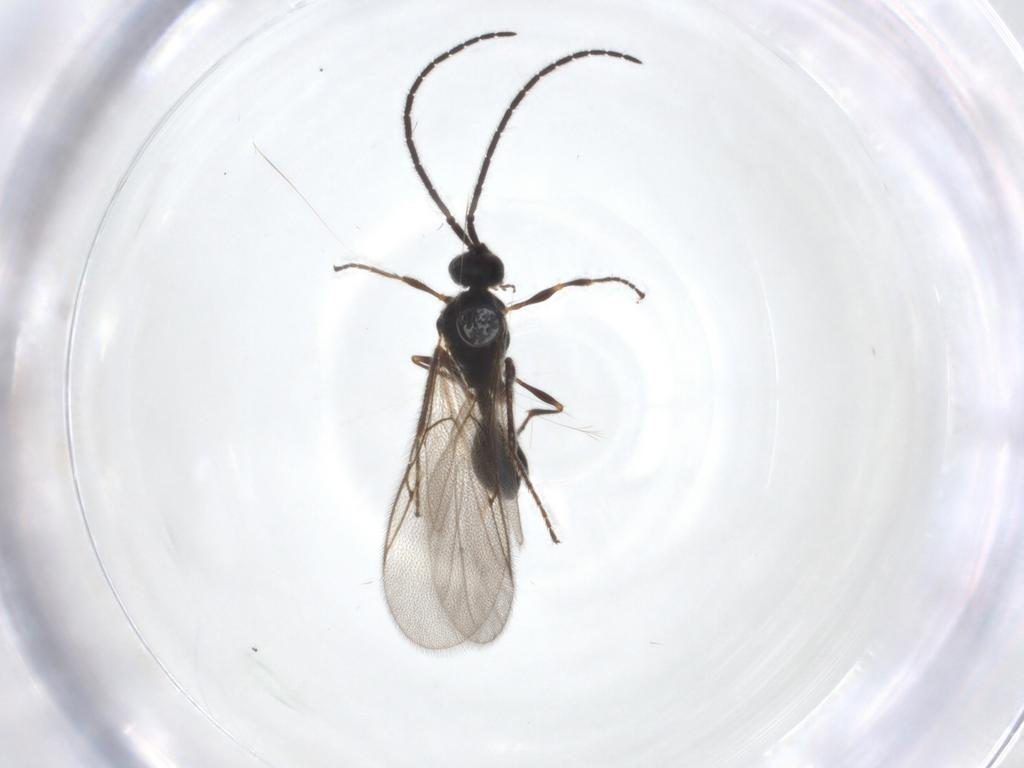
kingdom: Animalia
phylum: Arthropoda
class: Insecta
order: Hymenoptera
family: Diapriidae
